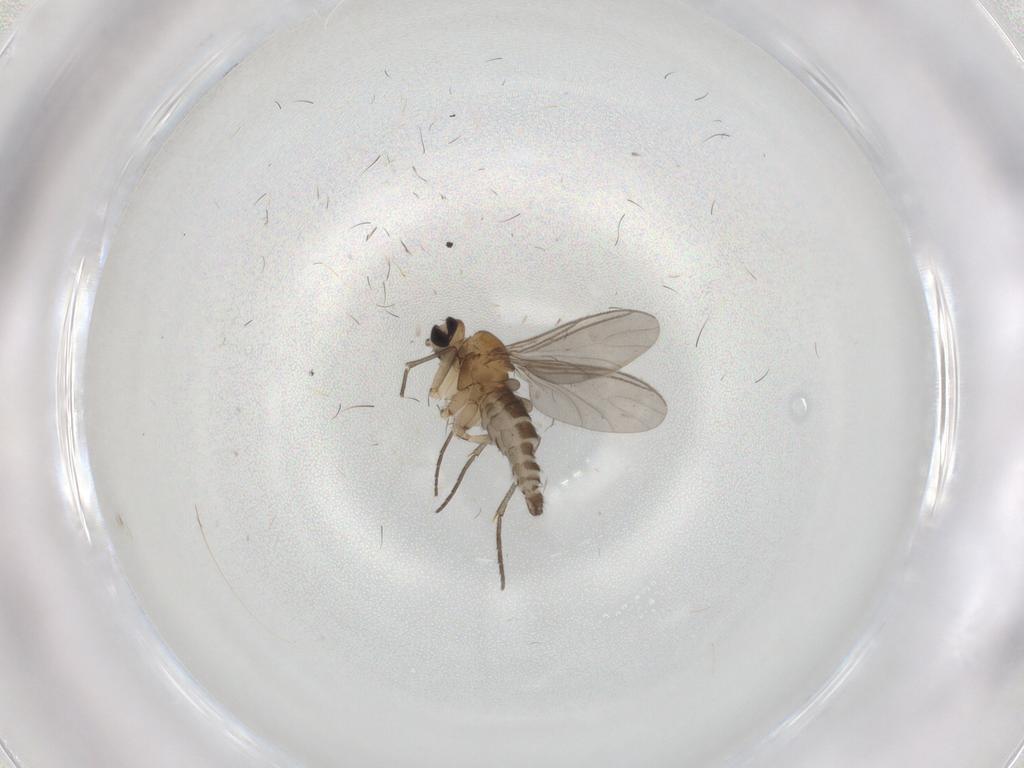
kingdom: Animalia
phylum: Arthropoda
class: Insecta
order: Diptera
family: Sciaridae
